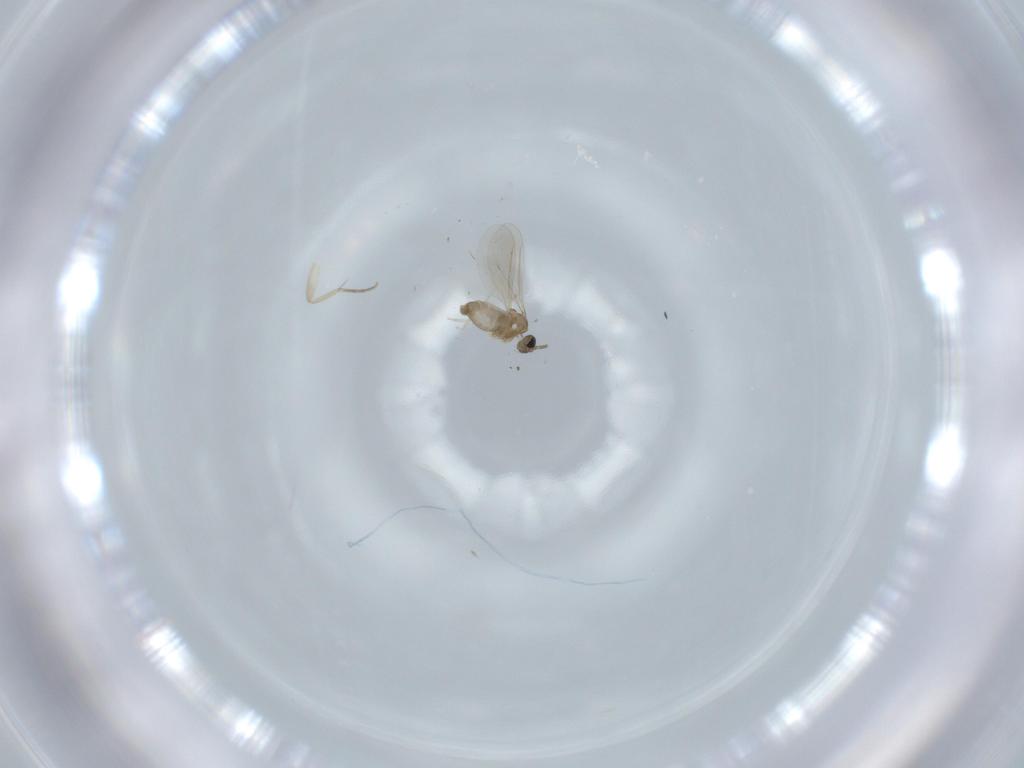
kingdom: Animalia
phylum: Arthropoda
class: Insecta
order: Diptera
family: Cecidomyiidae
